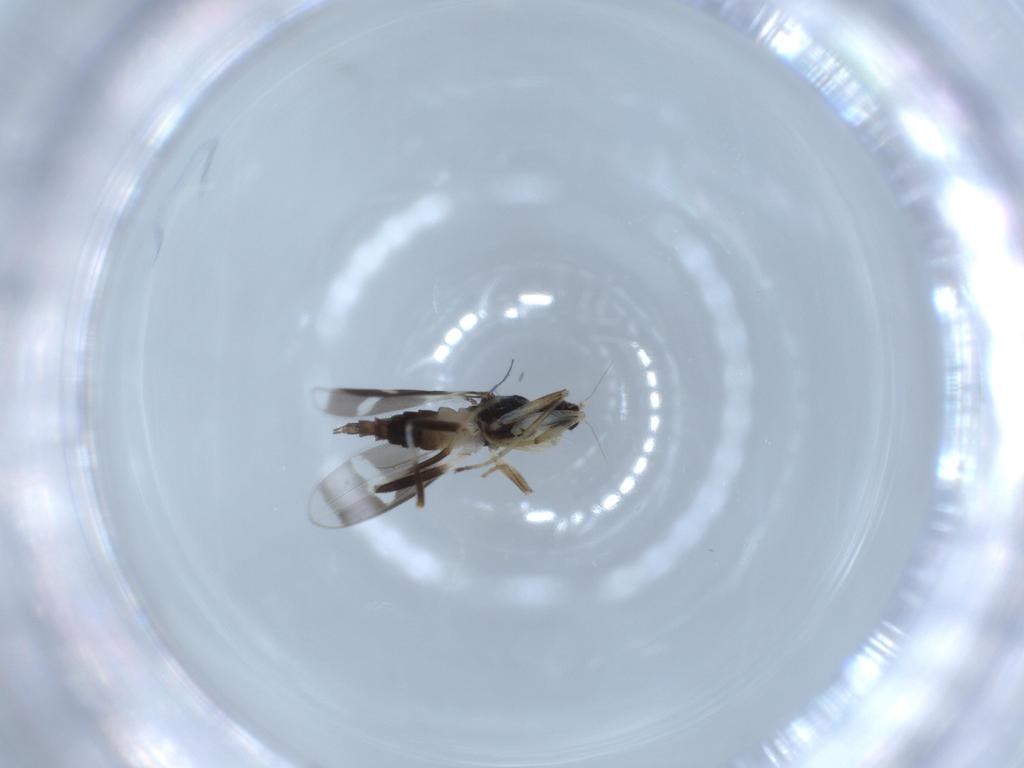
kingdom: Animalia
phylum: Arthropoda
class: Insecta
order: Diptera
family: Hybotidae
